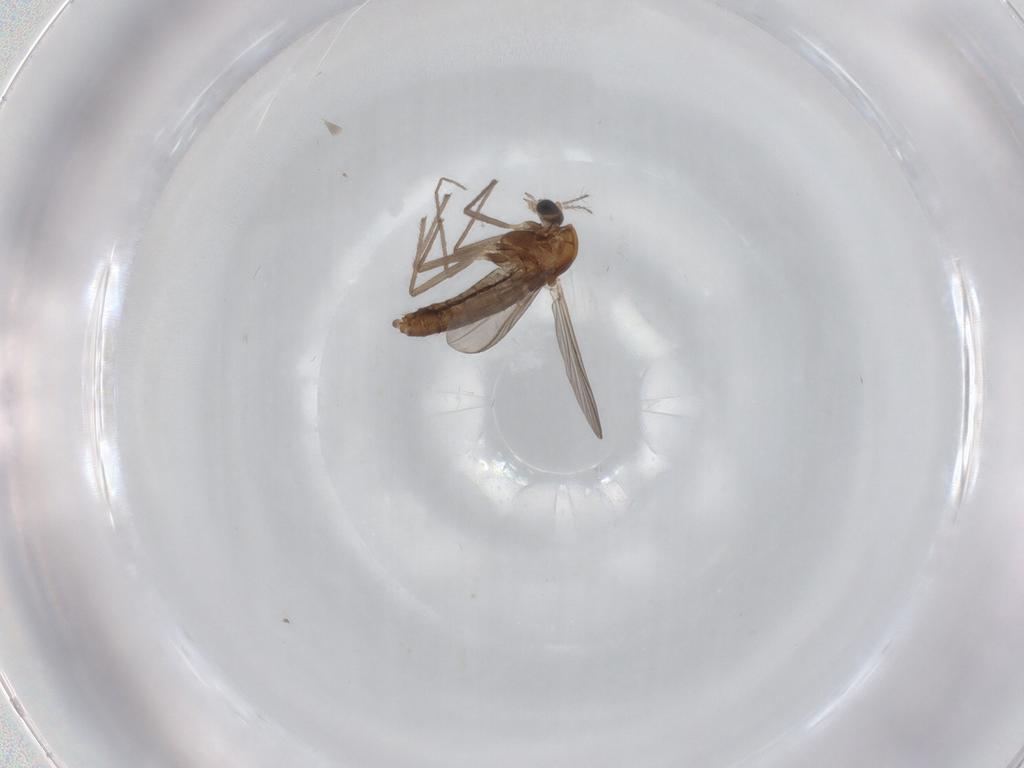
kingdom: Animalia
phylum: Arthropoda
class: Insecta
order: Diptera
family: Chironomidae
